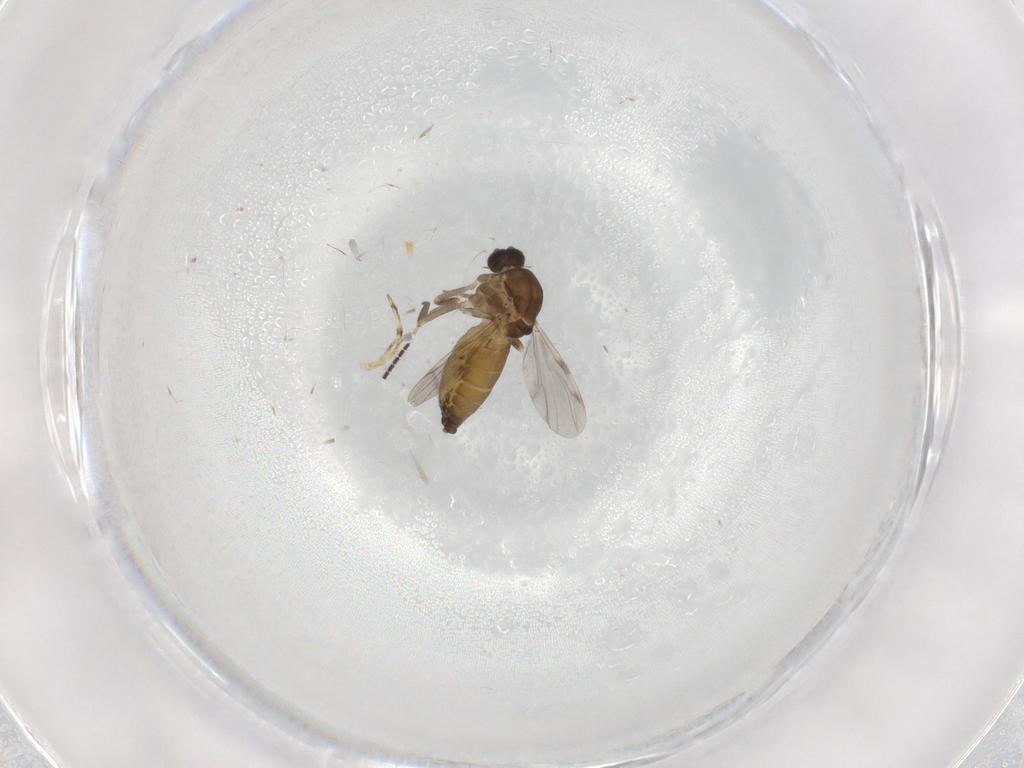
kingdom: Animalia
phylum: Arthropoda
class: Insecta
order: Diptera
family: Ceratopogonidae
